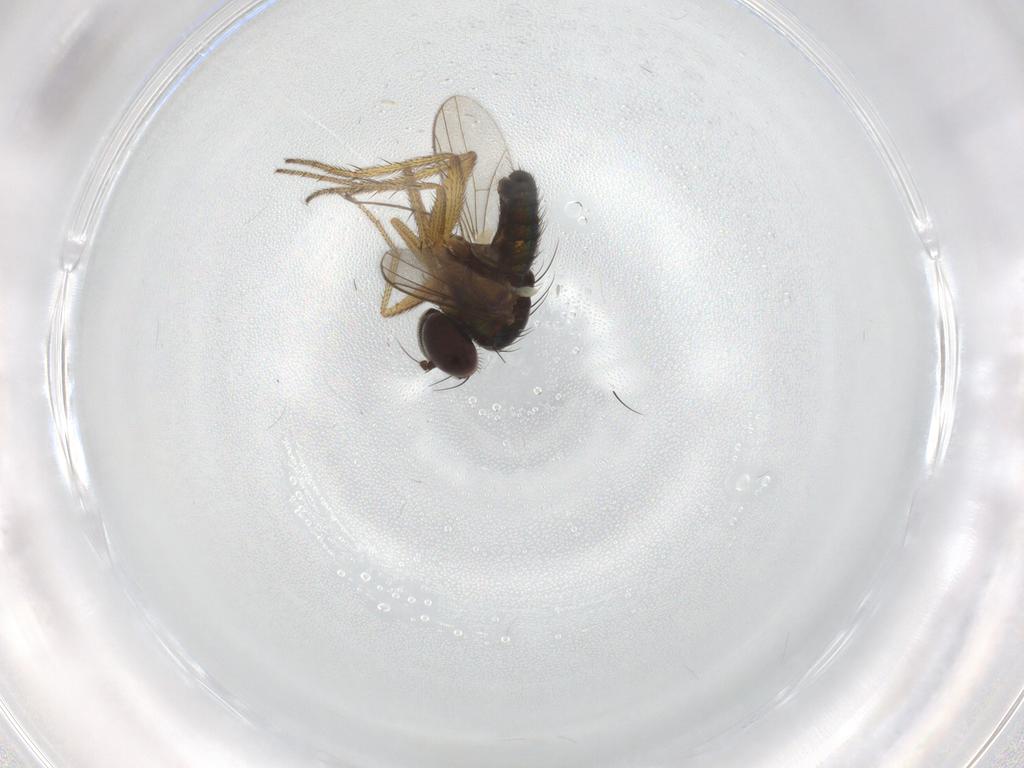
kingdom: Animalia
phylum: Arthropoda
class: Insecta
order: Diptera
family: Dolichopodidae
